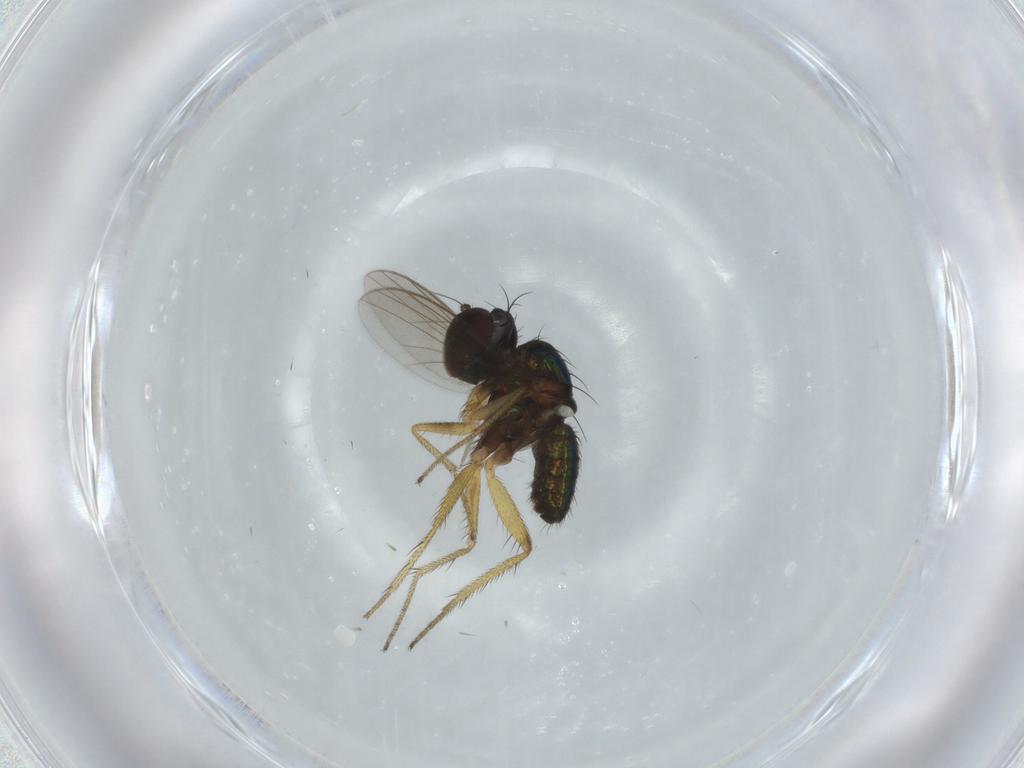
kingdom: Animalia
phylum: Arthropoda
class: Insecta
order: Diptera
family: Dolichopodidae
